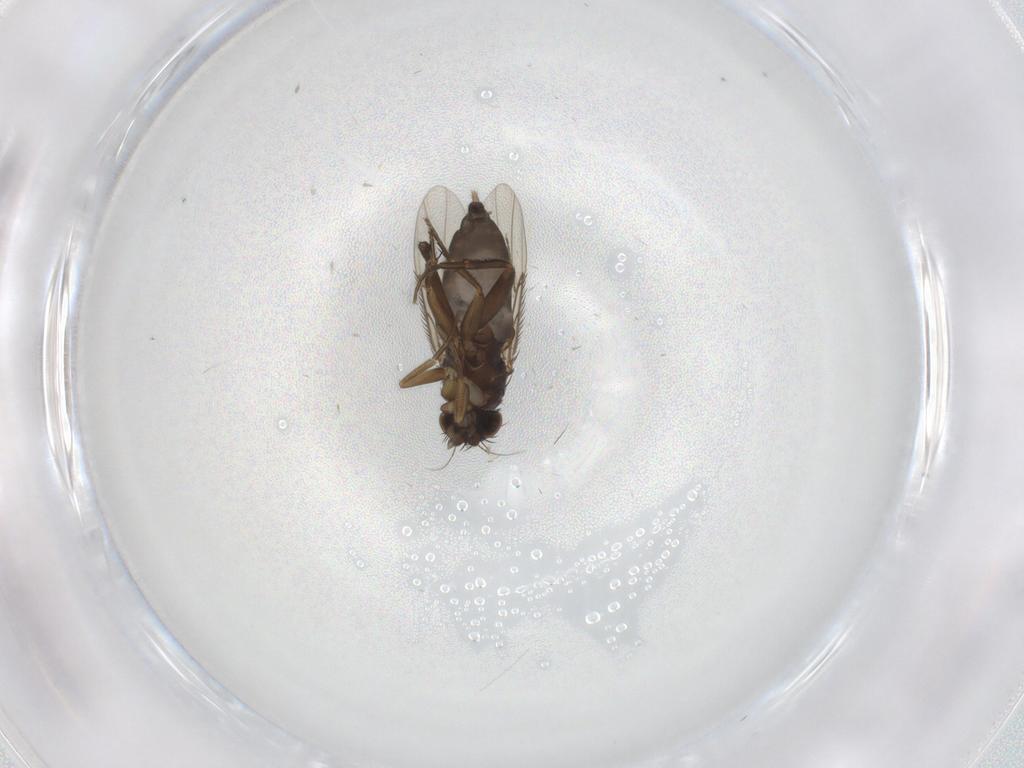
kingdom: Animalia
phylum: Arthropoda
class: Insecta
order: Diptera
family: Phoridae
